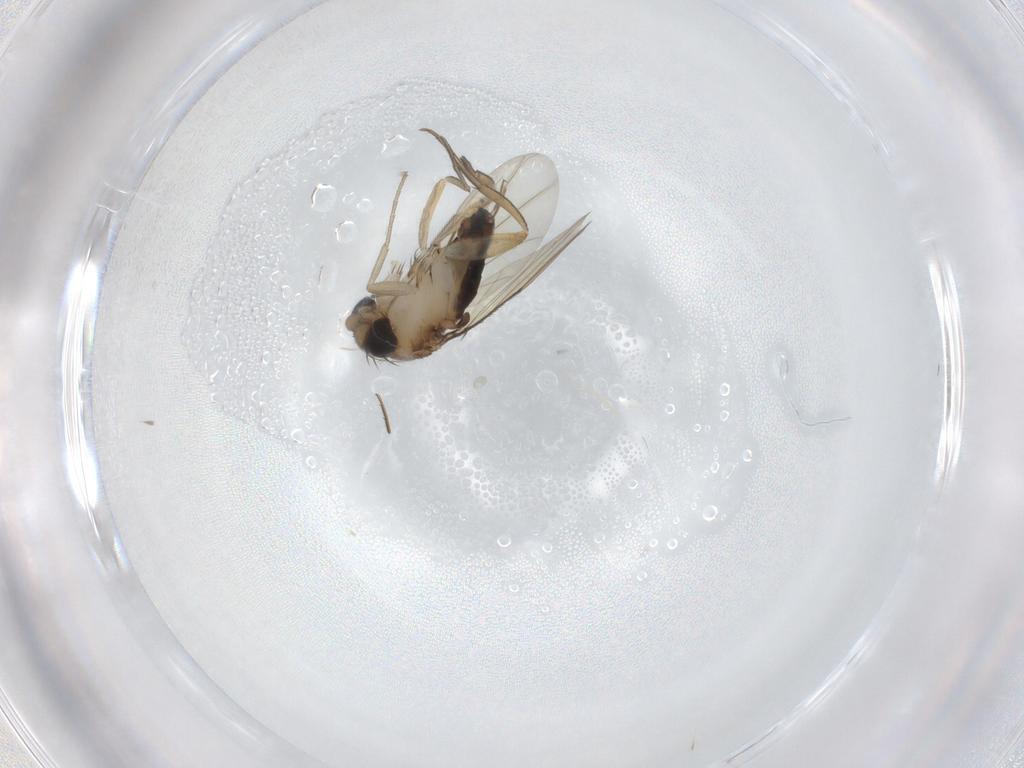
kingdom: Animalia
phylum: Arthropoda
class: Insecta
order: Diptera
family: Phoridae
